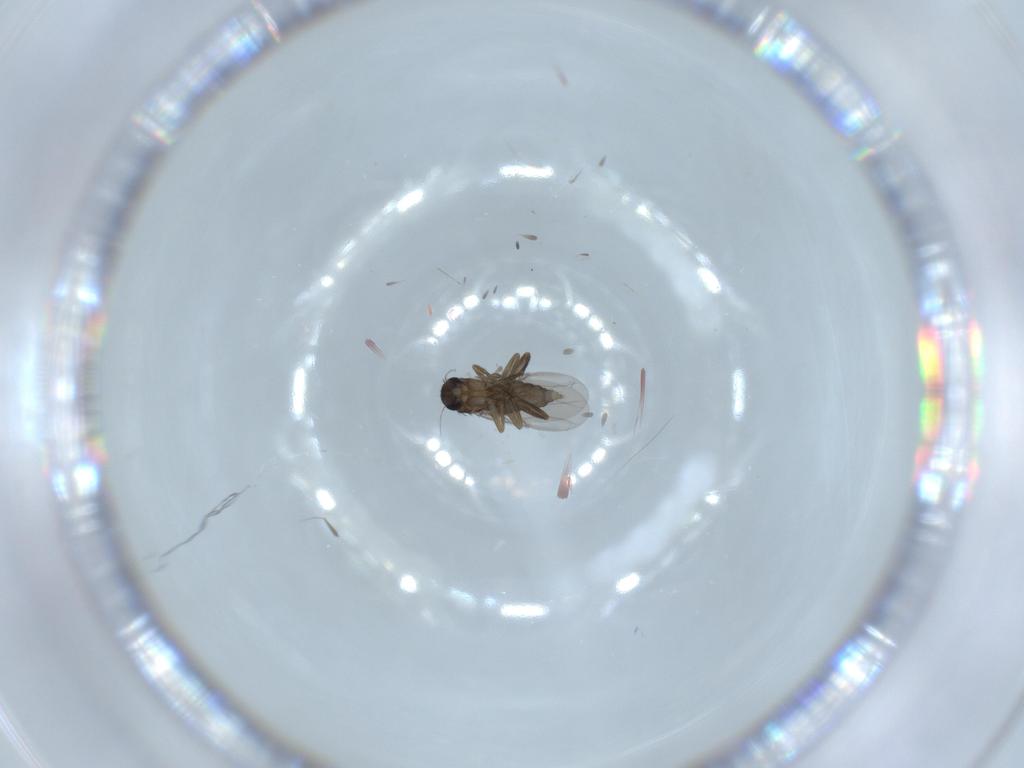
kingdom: Animalia
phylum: Arthropoda
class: Insecta
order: Diptera
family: Phoridae
